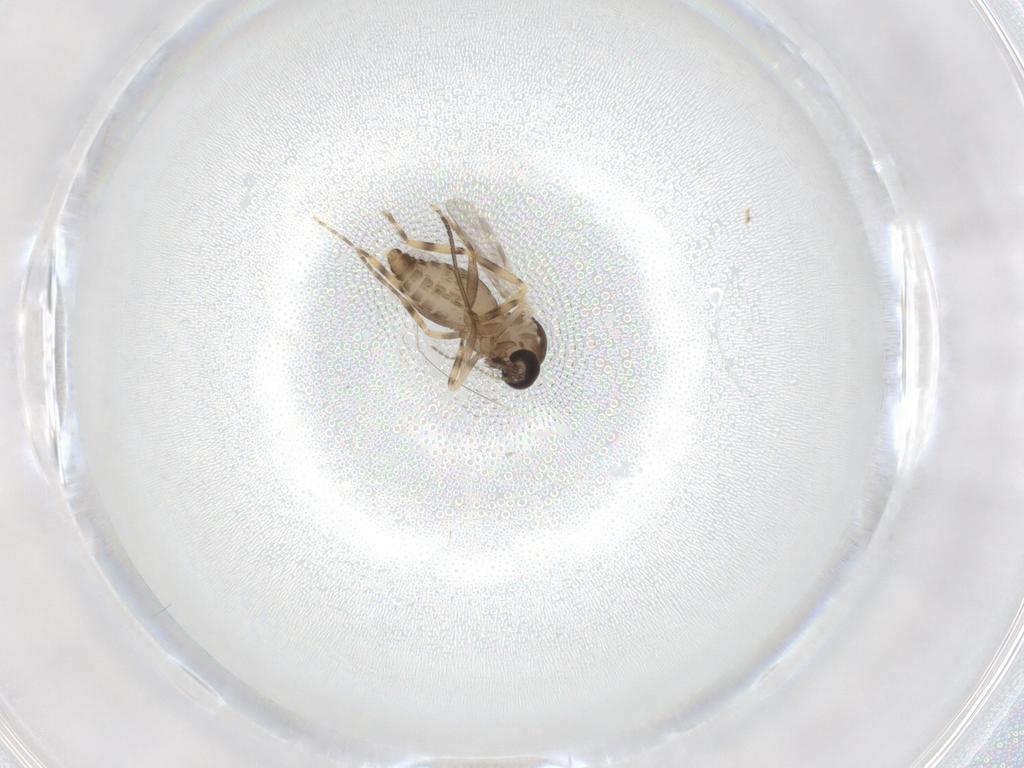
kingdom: Animalia
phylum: Arthropoda
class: Insecta
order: Diptera
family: Ceratopogonidae
